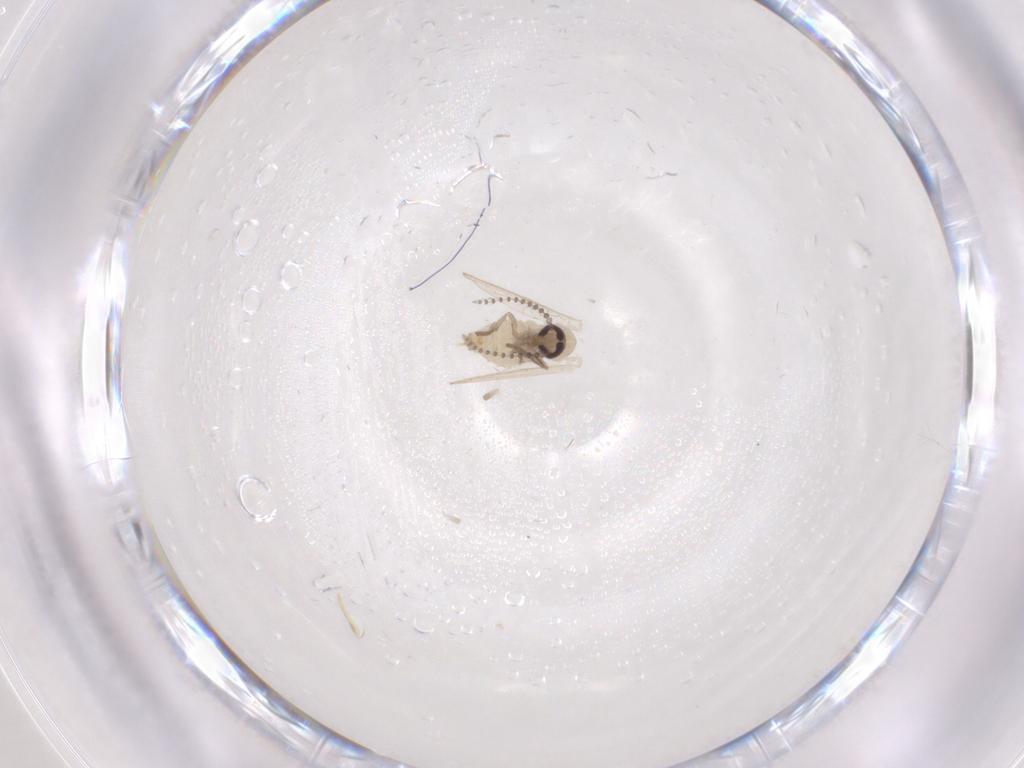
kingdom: Animalia
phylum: Arthropoda
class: Insecta
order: Diptera
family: Psychodidae
